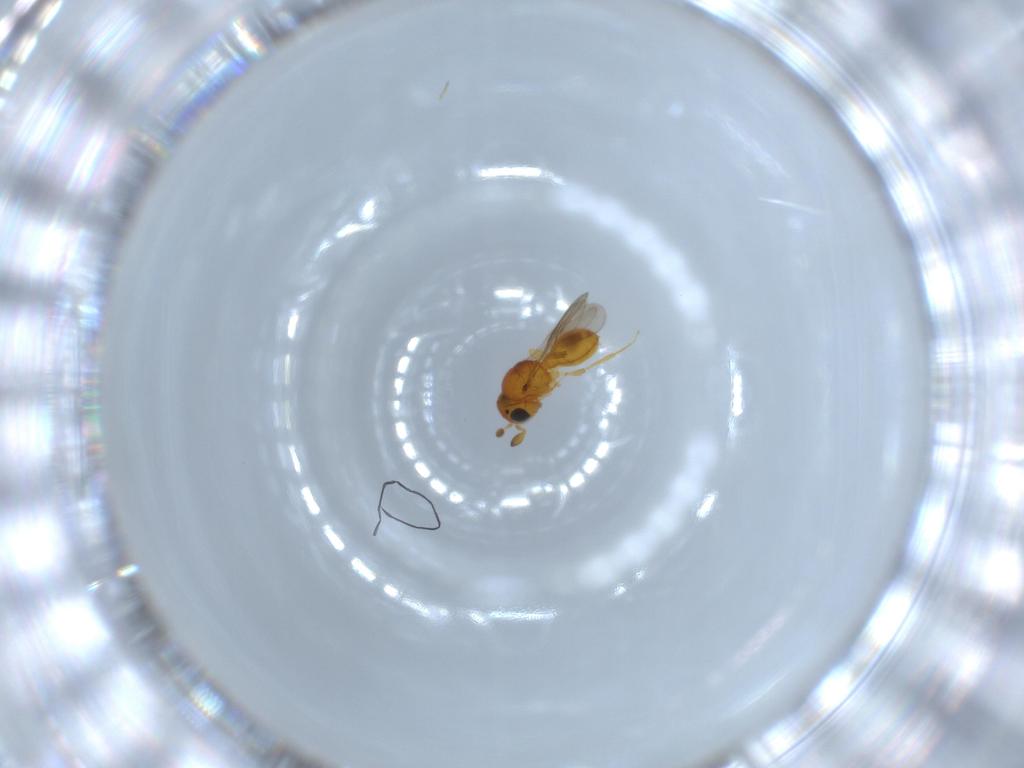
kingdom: Animalia
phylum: Arthropoda
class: Insecta
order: Hymenoptera
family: Scelionidae
